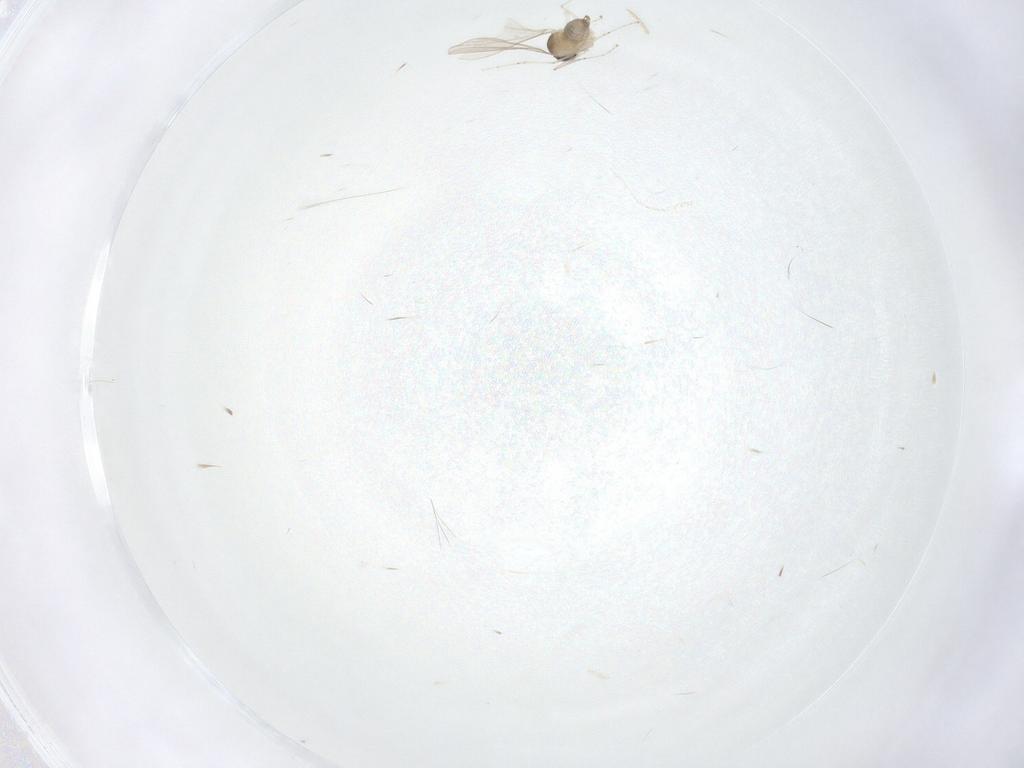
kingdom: Animalia
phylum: Arthropoda
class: Insecta
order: Diptera
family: Cecidomyiidae
